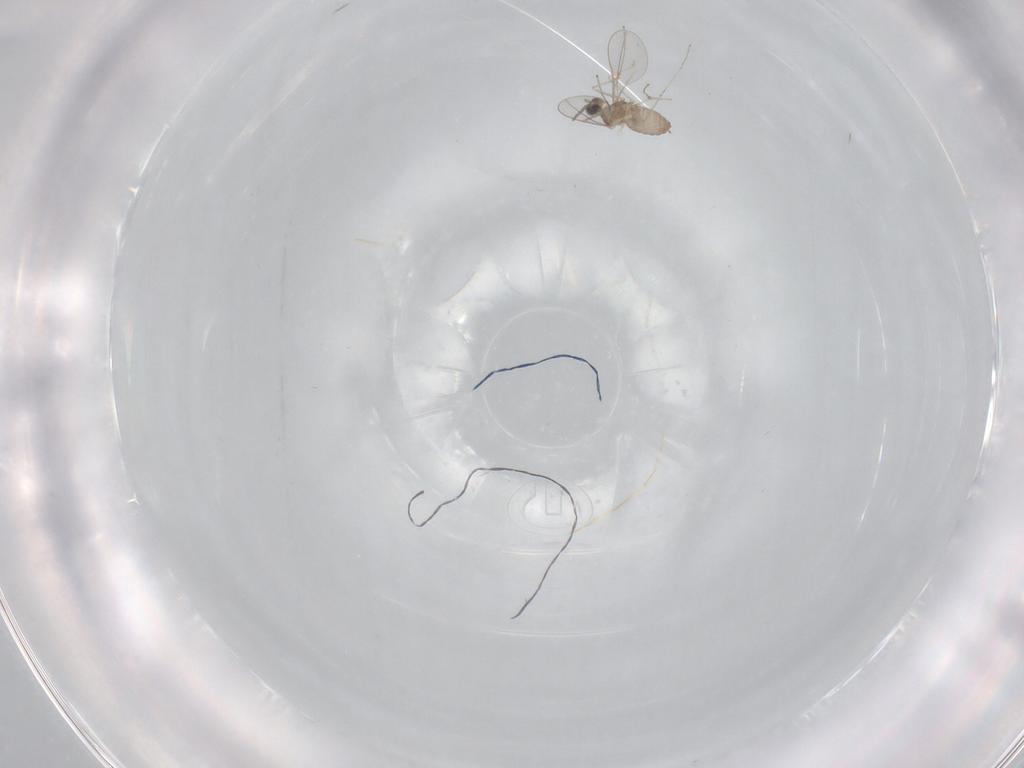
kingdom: Animalia
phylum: Arthropoda
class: Insecta
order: Diptera
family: Cecidomyiidae
